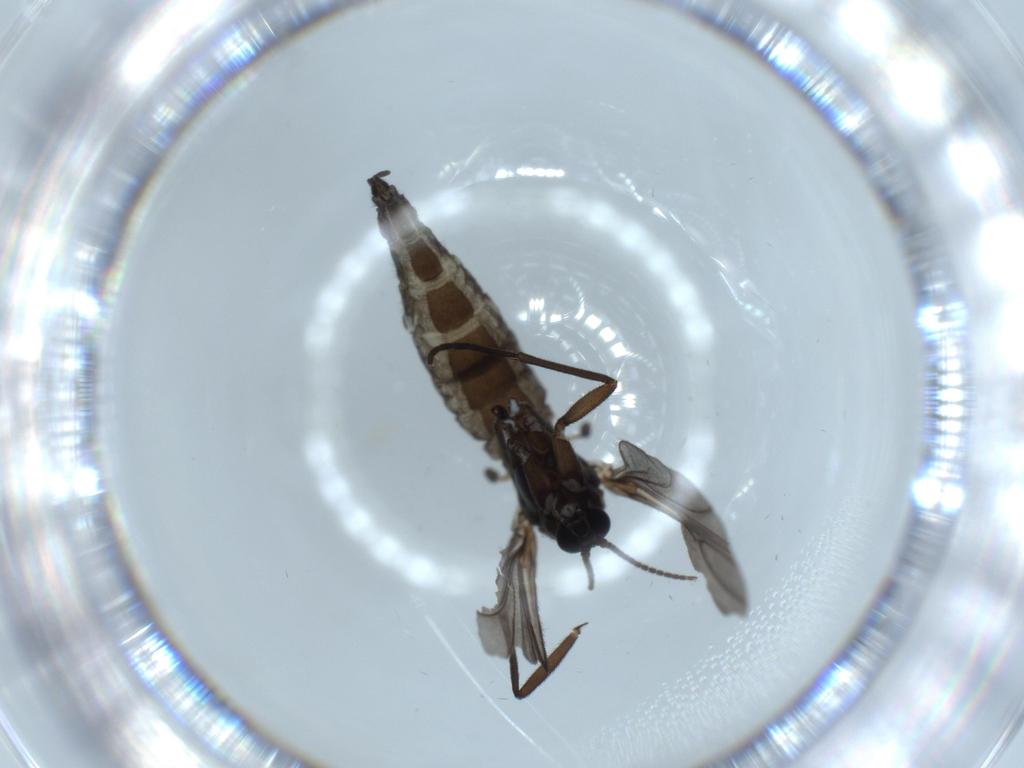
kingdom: Animalia
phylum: Arthropoda
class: Insecta
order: Diptera
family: Sciaridae
